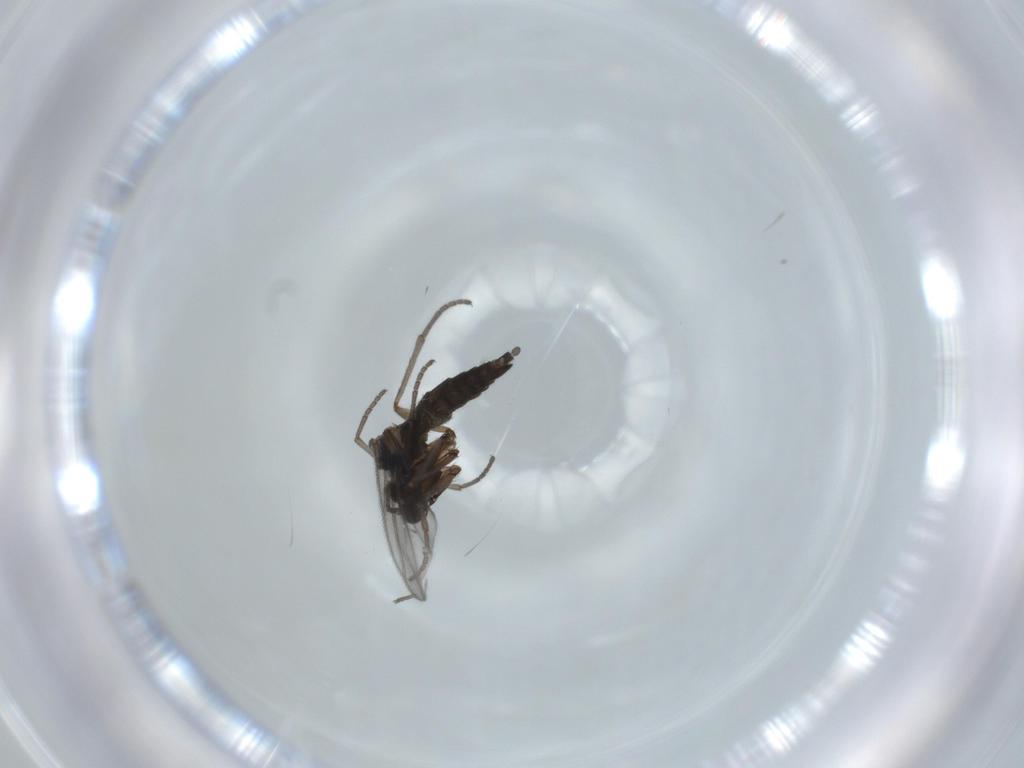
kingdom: Animalia
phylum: Arthropoda
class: Insecta
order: Diptera
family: Sciaridae
